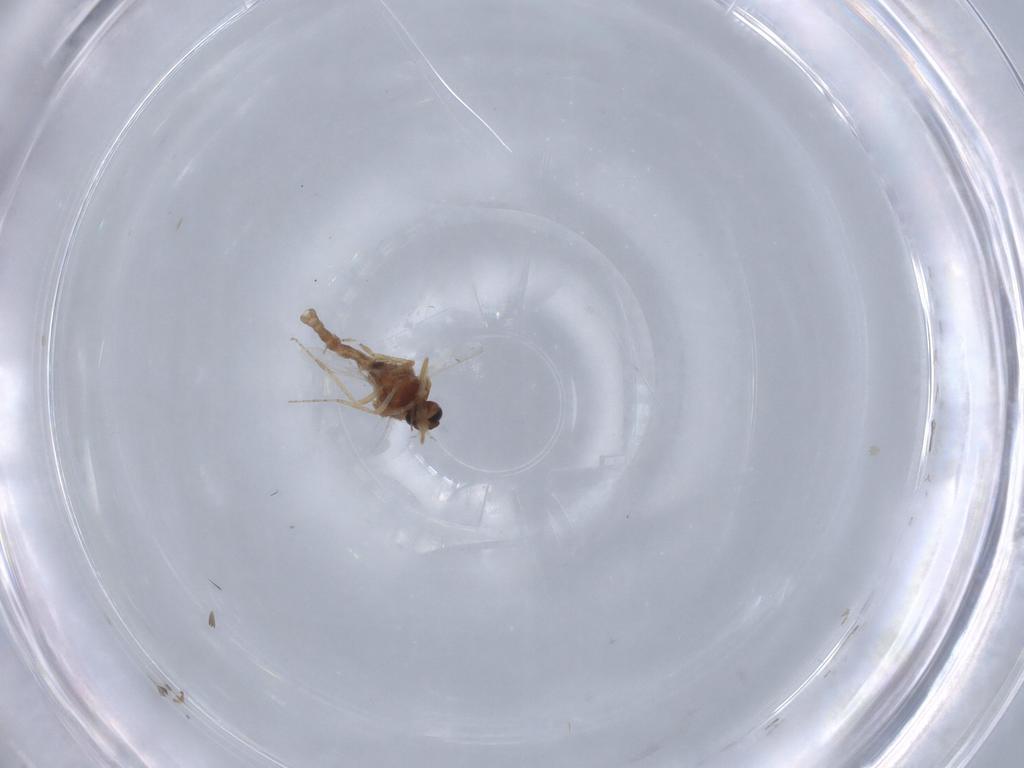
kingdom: Animalia
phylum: Arthropoda
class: Insecta
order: Diptera
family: Ceratopogonidae
